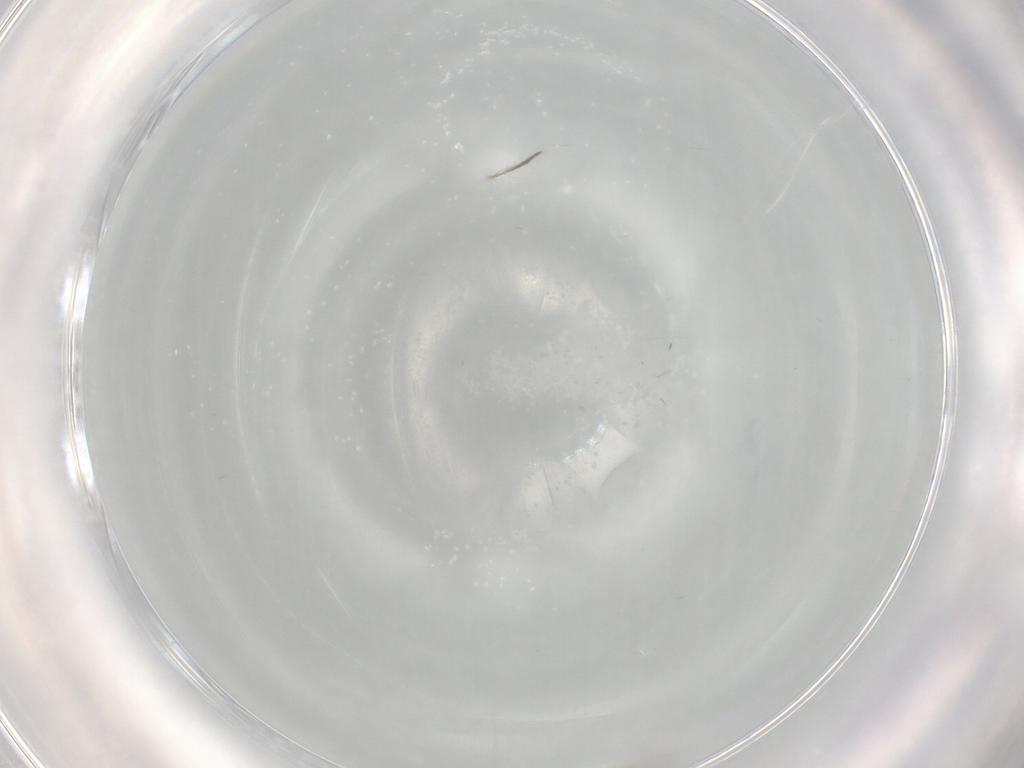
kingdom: Animalia
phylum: Arthropoda
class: Insecta
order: Diptera
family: Cecidomyiidae
